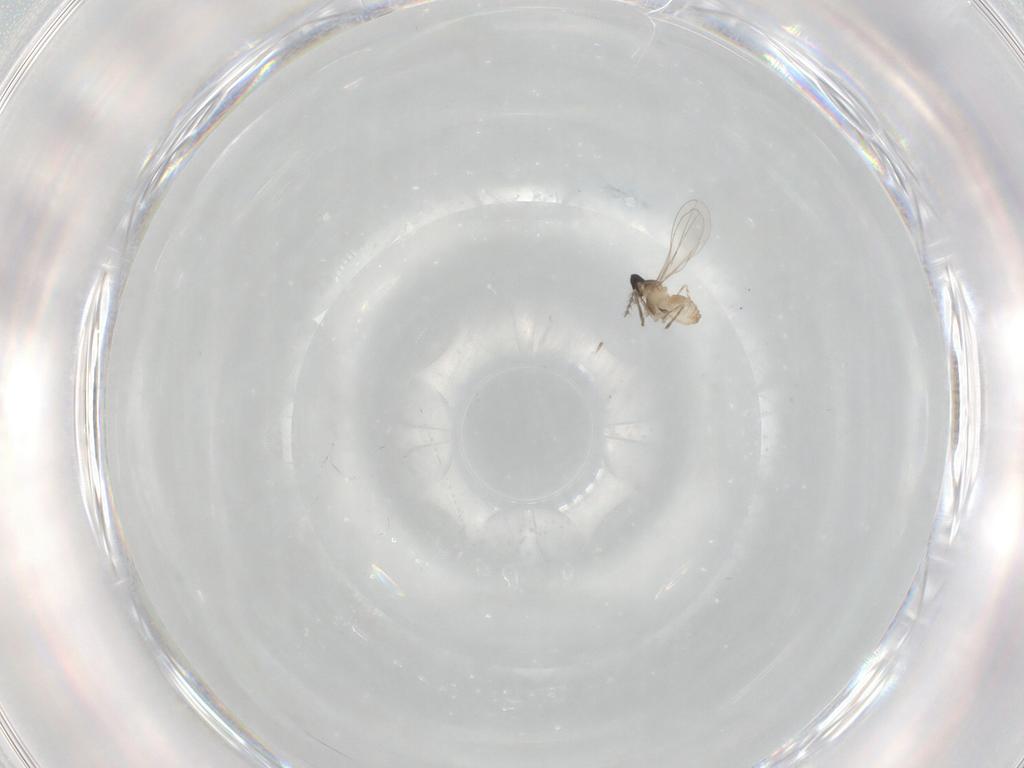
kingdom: Animalia
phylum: Arthropoda
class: Insecta
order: Diptera
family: Cecidomyiidae
